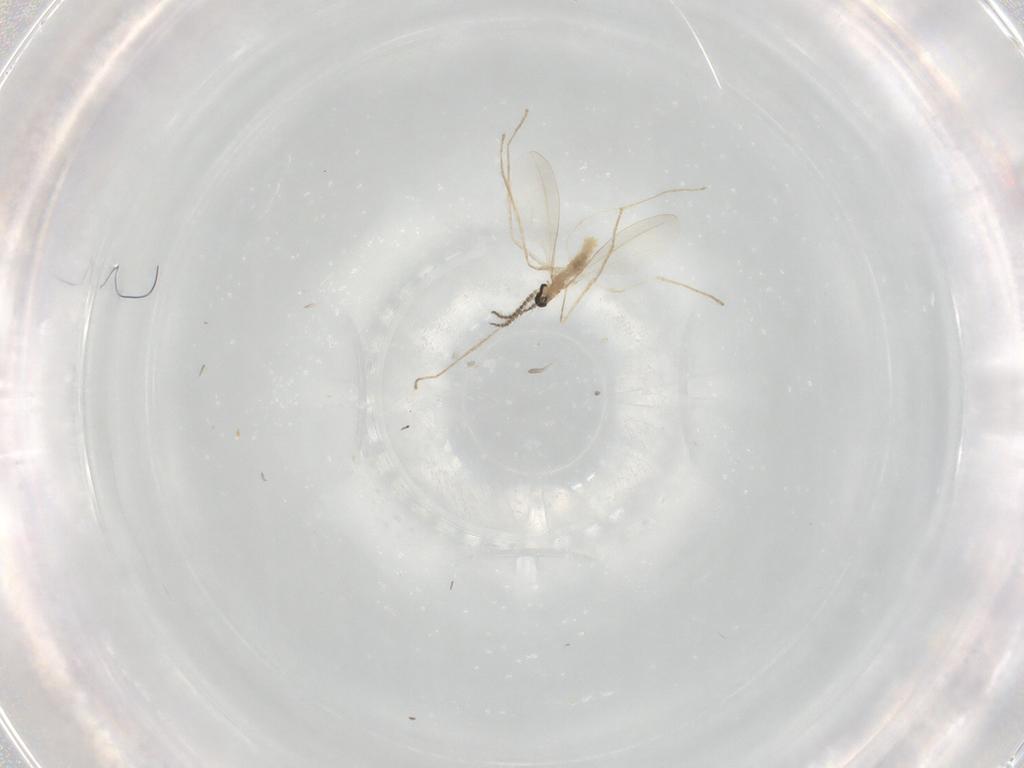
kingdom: Animalia
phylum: Arthropoda
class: Insecta
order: Diptera
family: Cecidomyiidae
